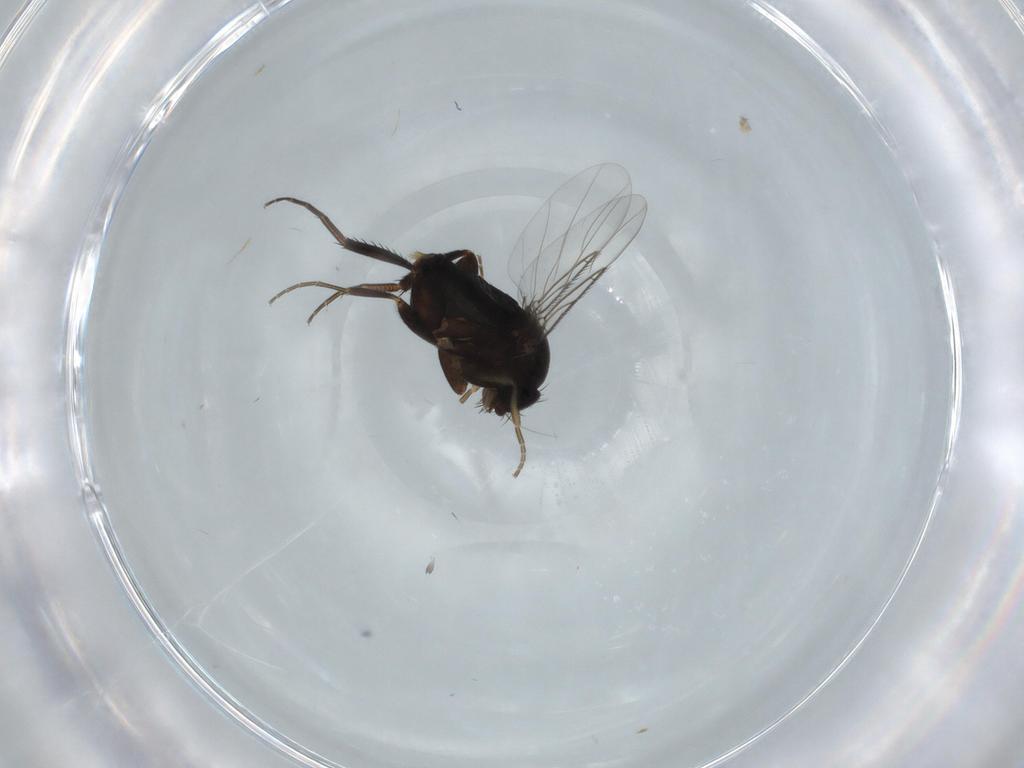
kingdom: Animalia
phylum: Arthropoda
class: Insecta
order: Diptera
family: Phoridae
